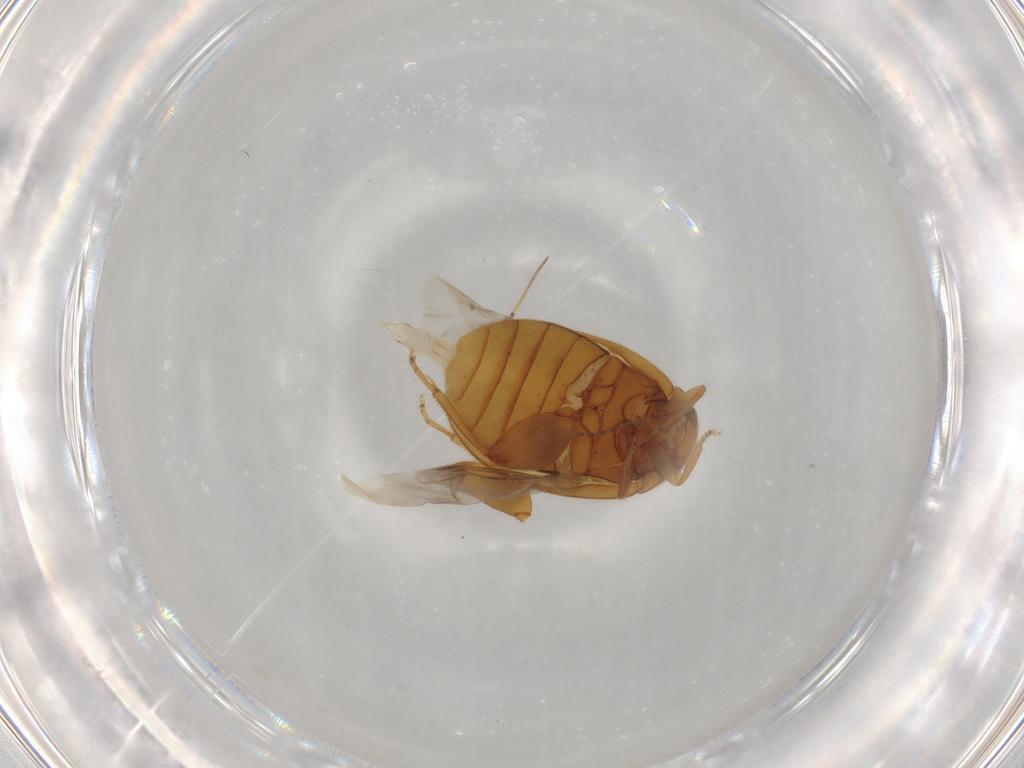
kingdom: Animalia
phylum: Arthropoda
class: Insecta
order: Coleoptera
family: Scirtidae
